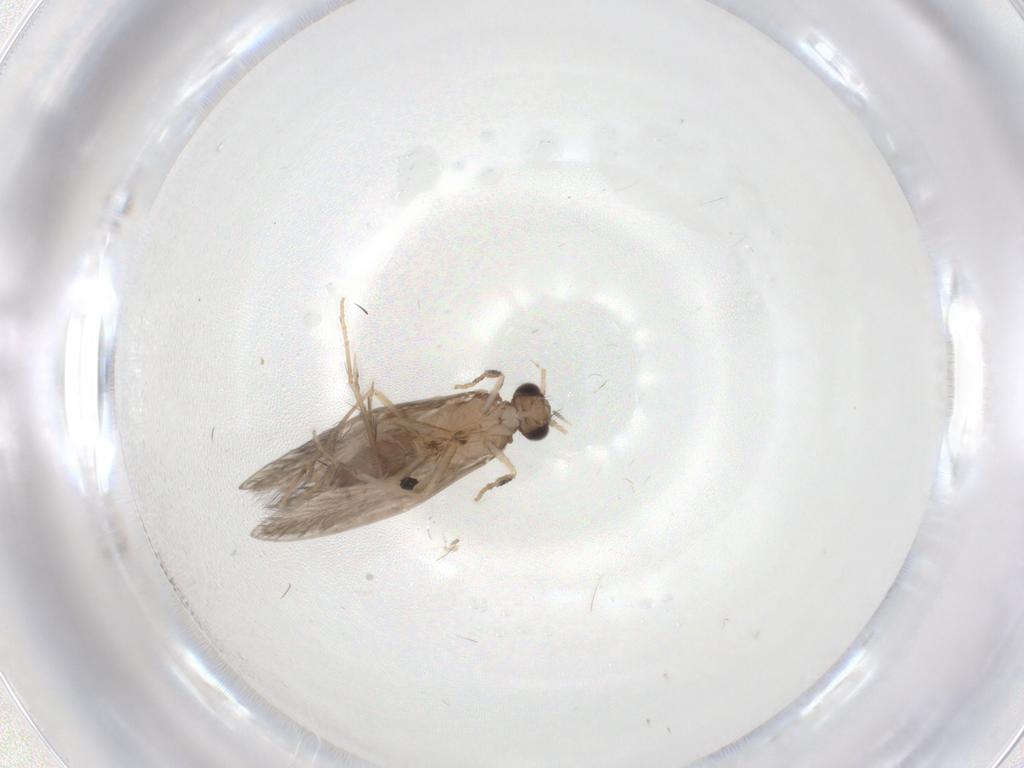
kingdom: Animalia
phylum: Arthropoda
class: Insecta
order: Trichoptera
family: Hydroptilidae
